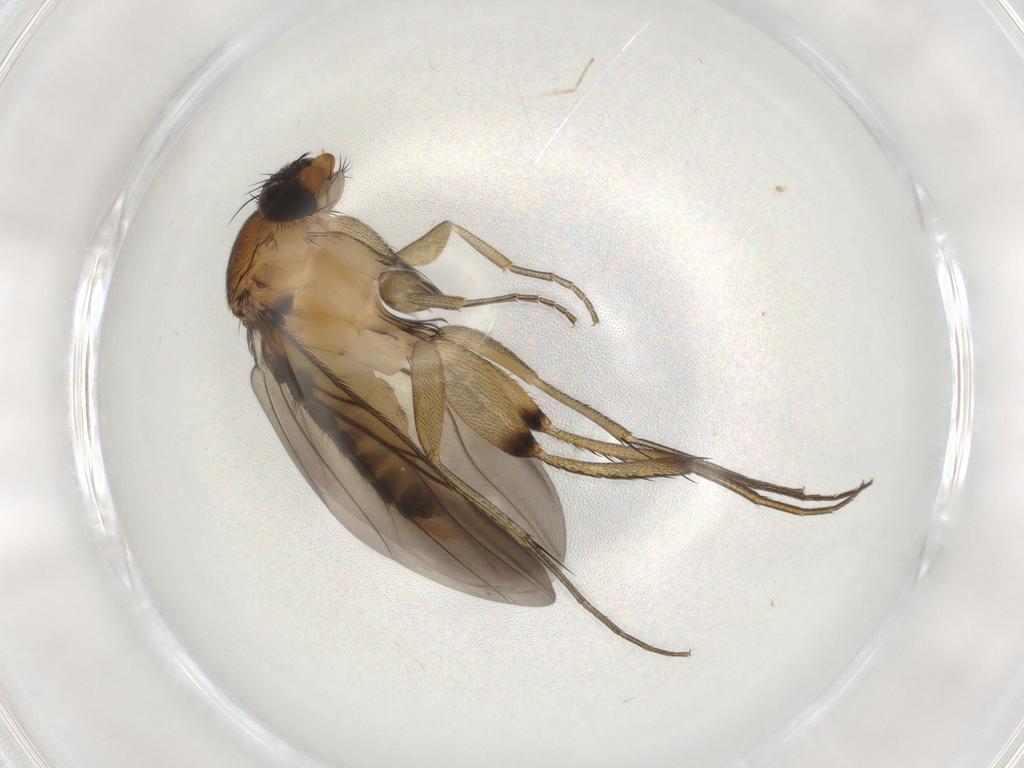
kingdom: Animalia
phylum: Arthropoda
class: Insecta
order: Diptera
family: Phoridae
